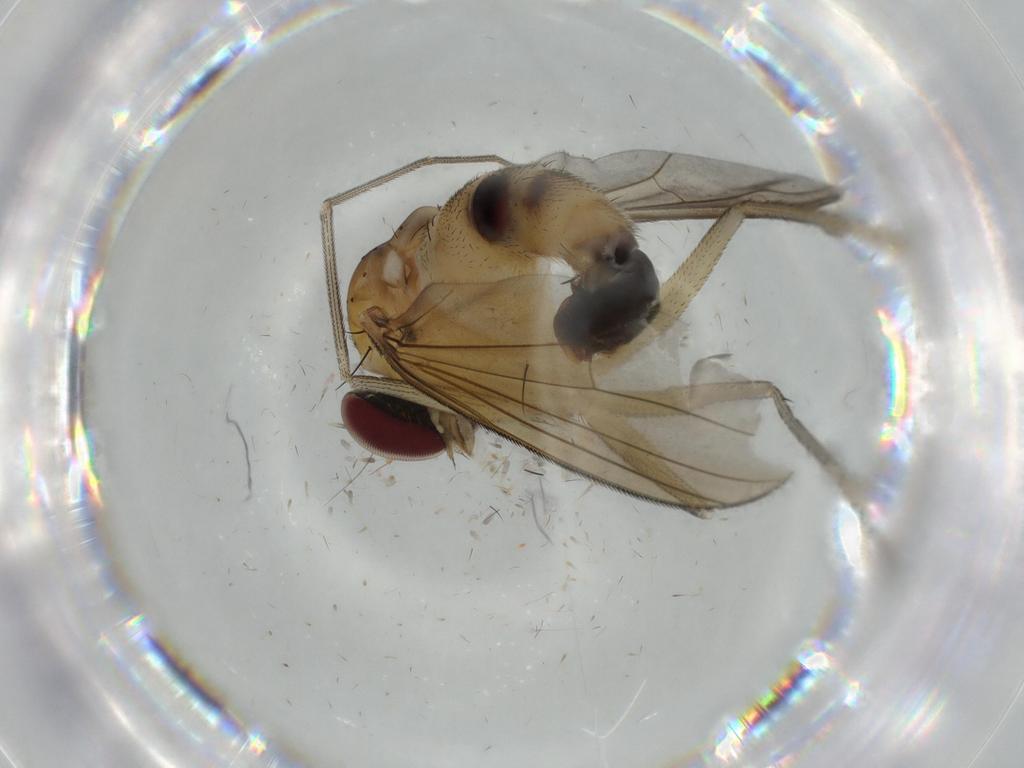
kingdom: Animalia
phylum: Arthropoda
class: Insecta
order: Diptera
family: Dolichopodidae
